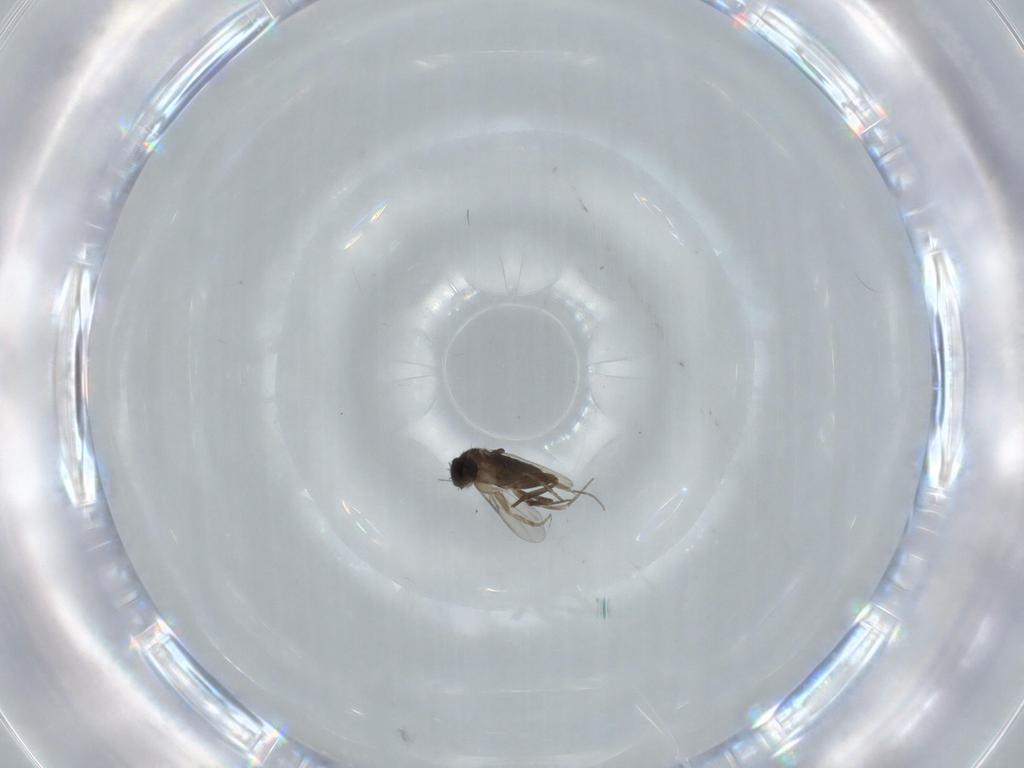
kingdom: Animalia
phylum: Arthropoda
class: Insecta
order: Diptera
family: Phoridae
